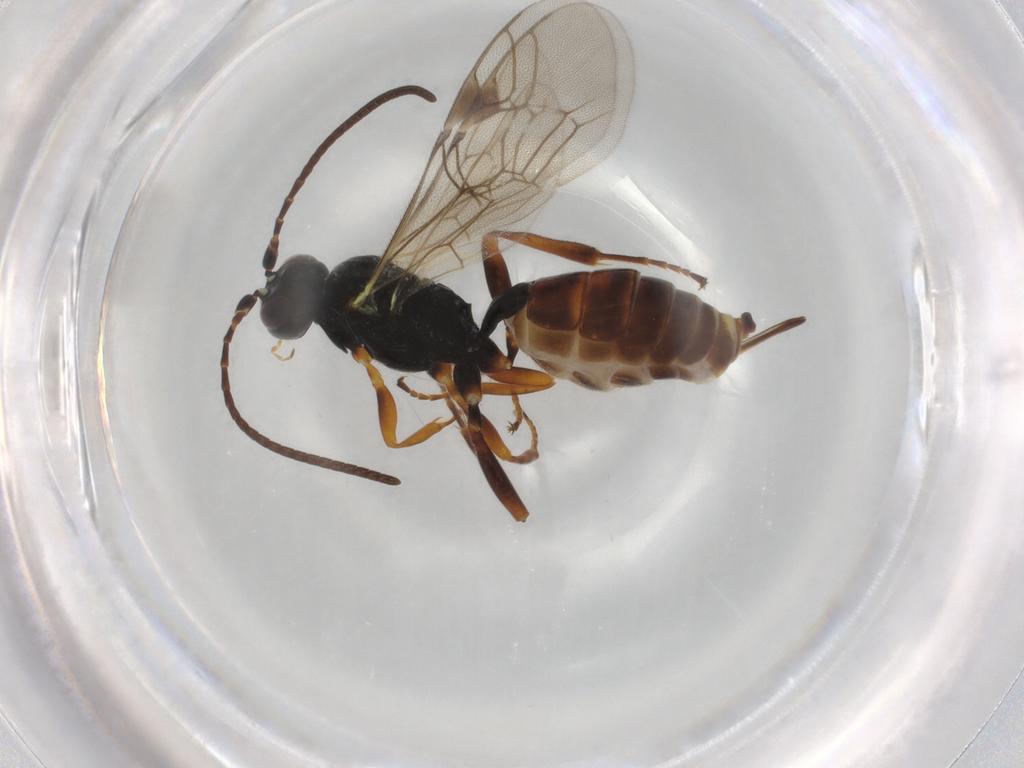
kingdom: Animalia
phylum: Arthropoda
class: Insecta
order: Hymenoptera
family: Ichneumonidae
